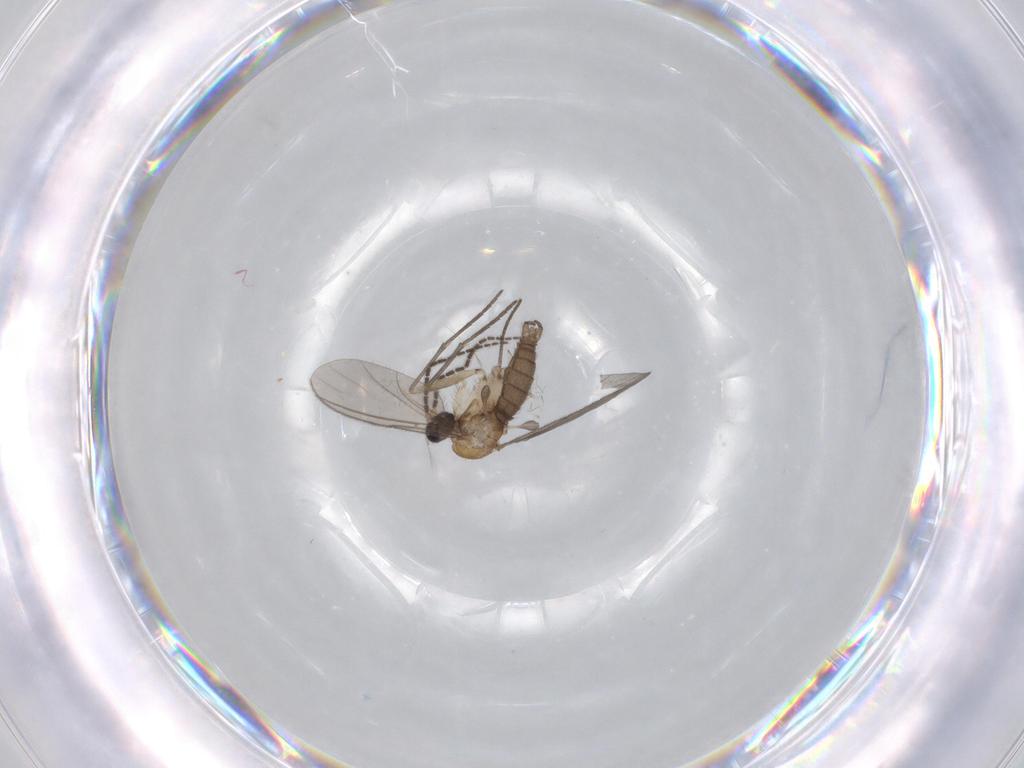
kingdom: Animalia
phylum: Arthropoda
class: Insecta
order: Diptera
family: Sciaridae
